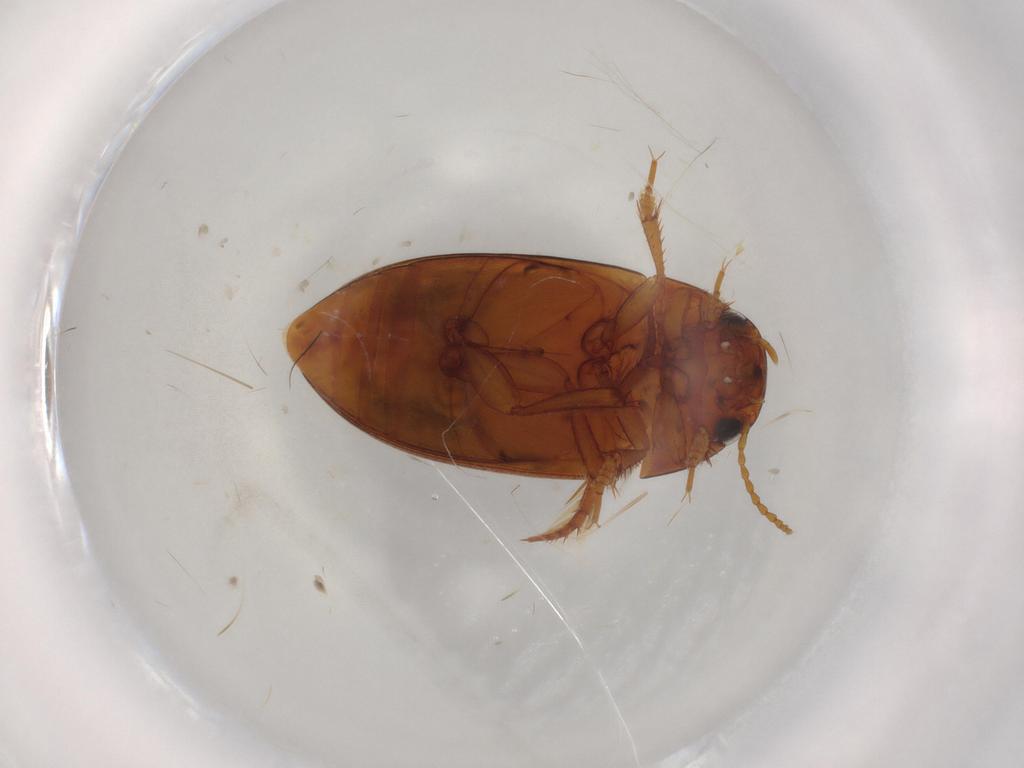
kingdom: Animalia
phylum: Arthropoda
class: Insecta
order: Coleoptera
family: Dytiscidae
